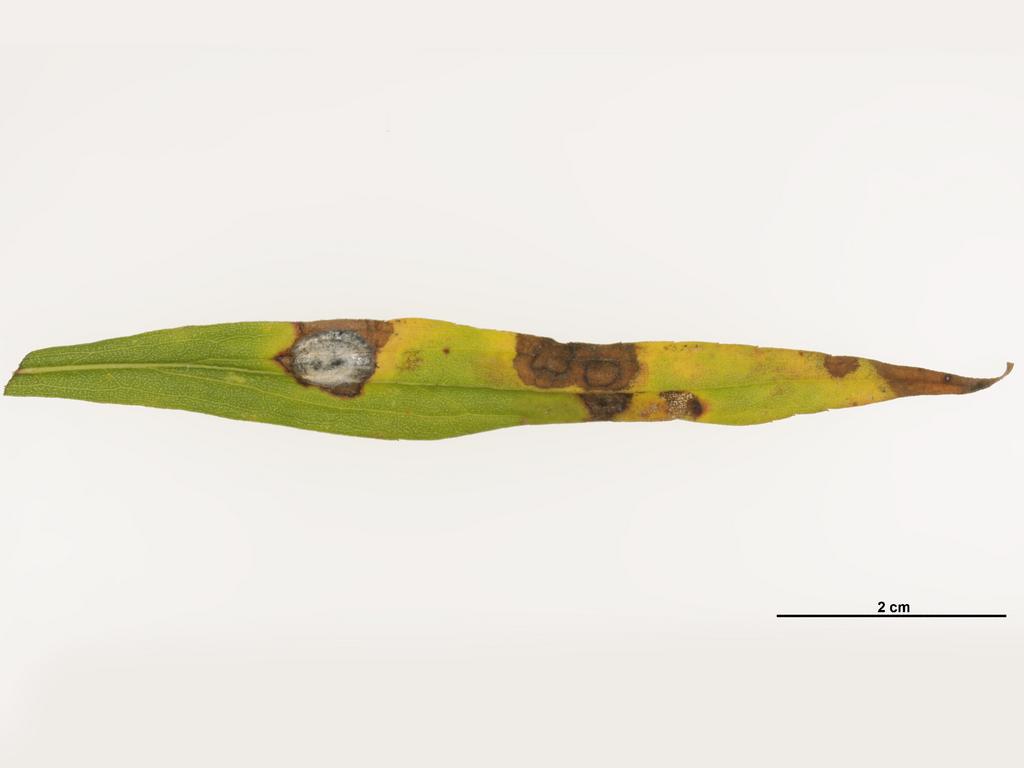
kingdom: Animalia
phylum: Arthropoda
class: Insecta
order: Hymenoptera
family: Eulophidae
